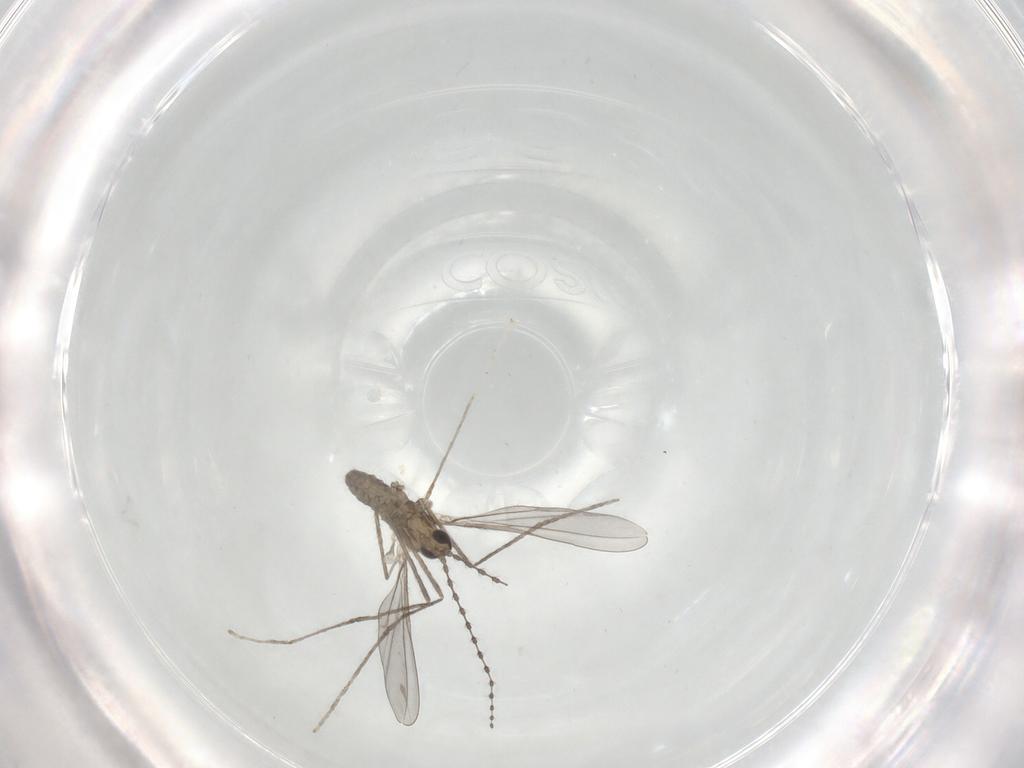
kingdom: Animalia
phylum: Arthropoda
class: Insecta
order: Diptera
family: Cecidomyiidae
